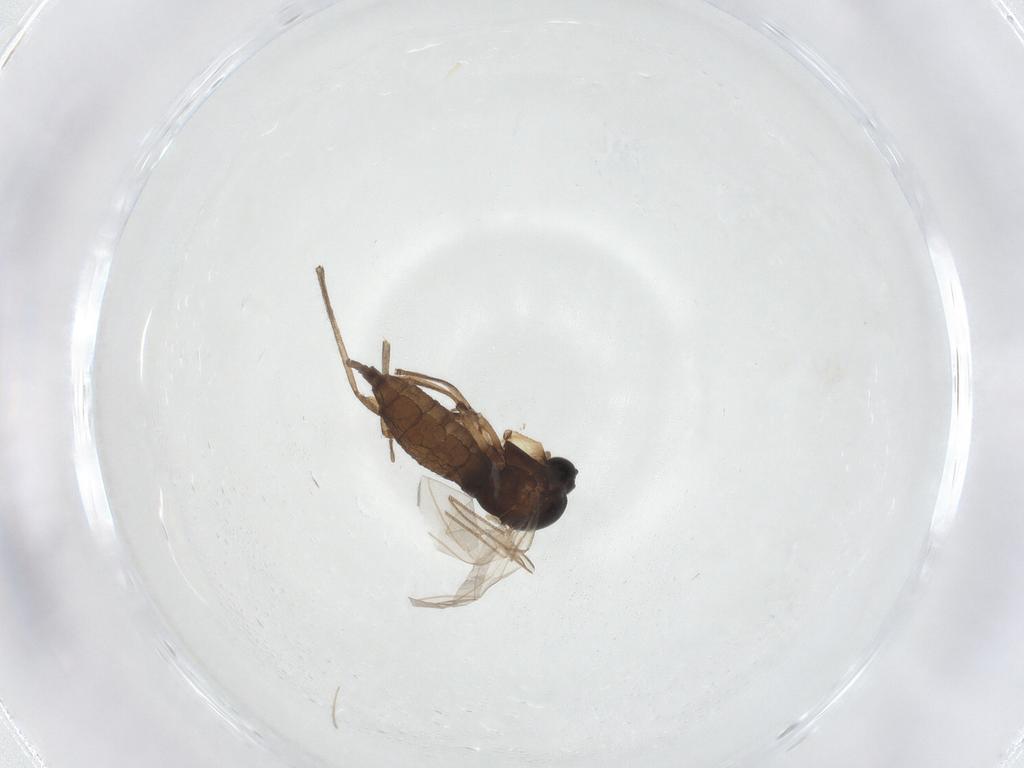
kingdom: Animalia
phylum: Arthropoda
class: Insecta
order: Diptera
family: Sciaridae
